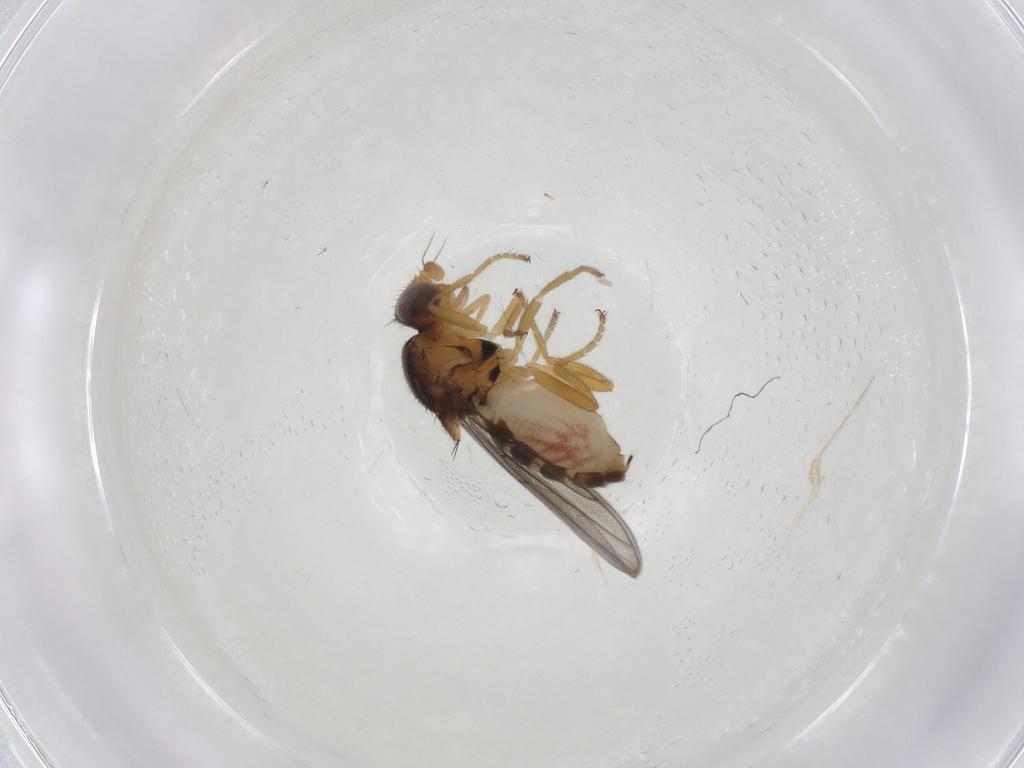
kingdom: Animalia
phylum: Arthropoda
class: Insecta
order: Diptera
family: Chloropidae
